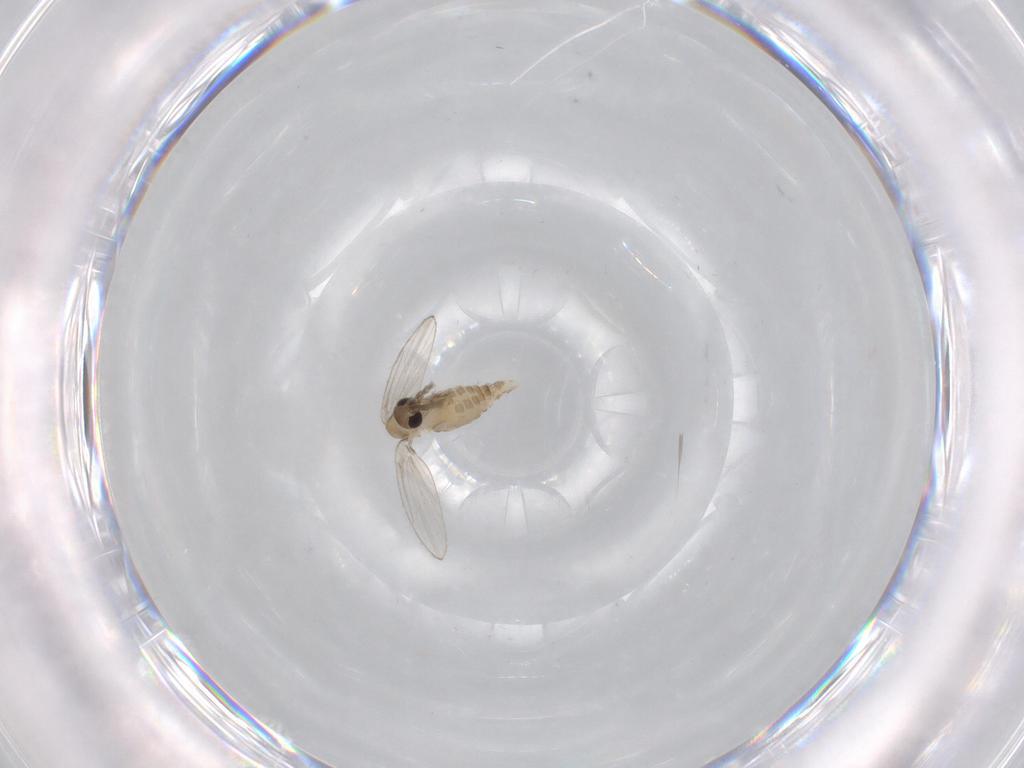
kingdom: Animalia
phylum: Arthropoda
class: Insecta
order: Diptera
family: Psychodidae
